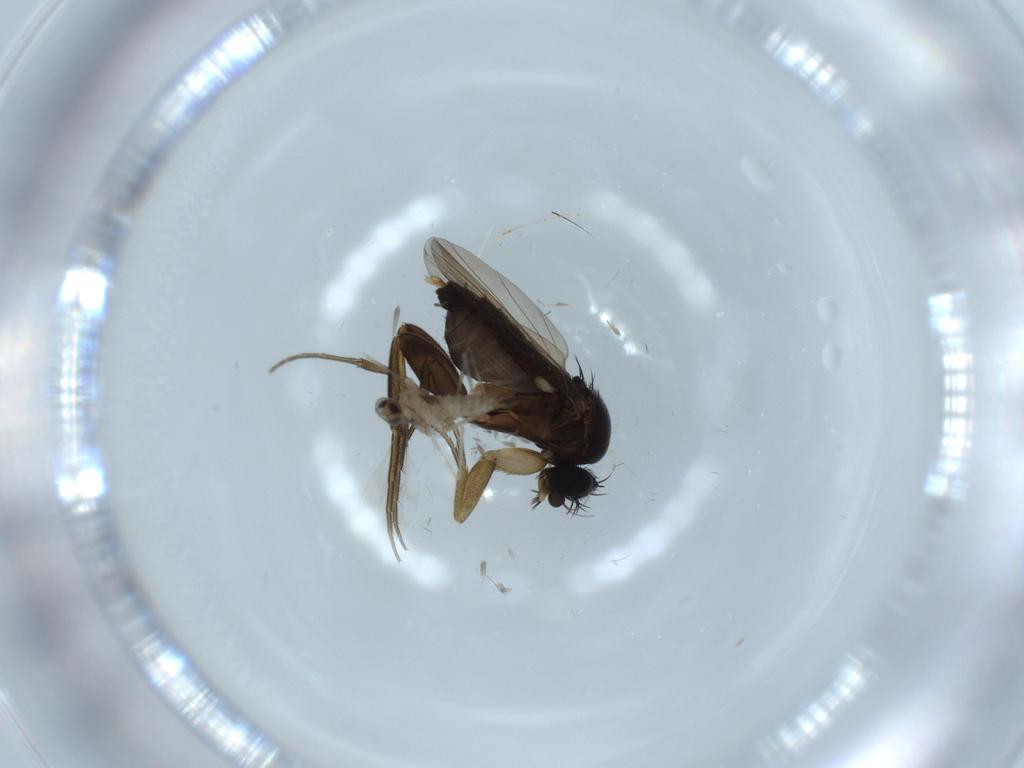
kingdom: Animalia
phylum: Arthropoda
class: Insecta
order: Diptera
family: Phoridae
